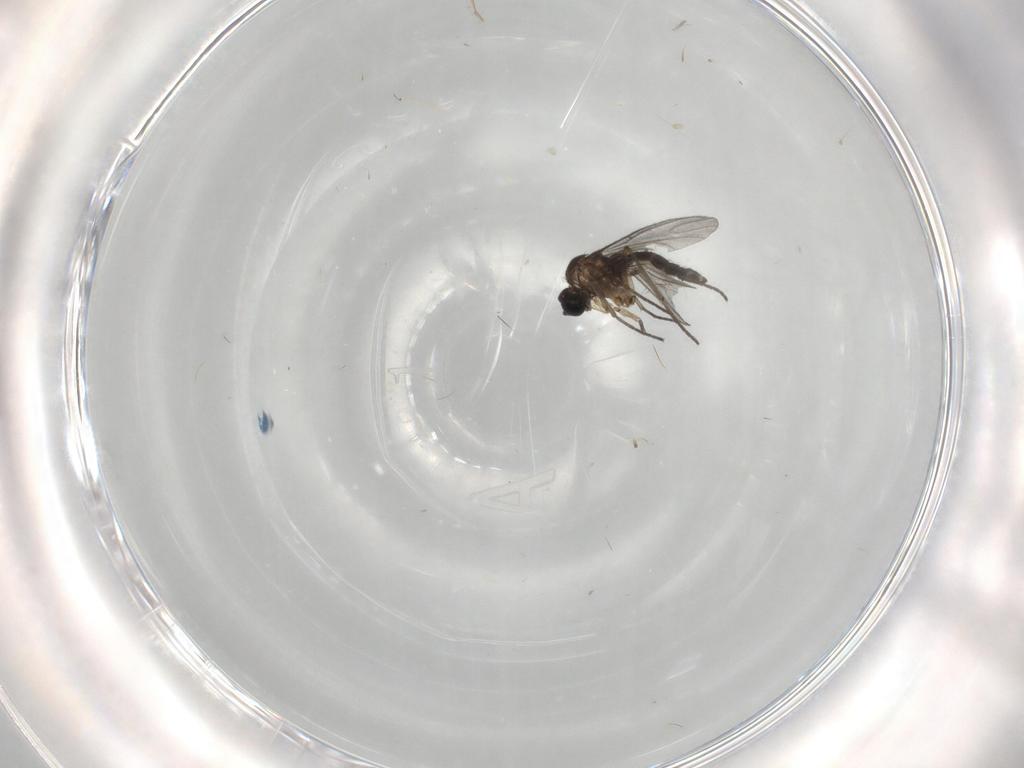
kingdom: Animalia
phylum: Arthropoda
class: Insecta
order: Diptera
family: Sciaridae
